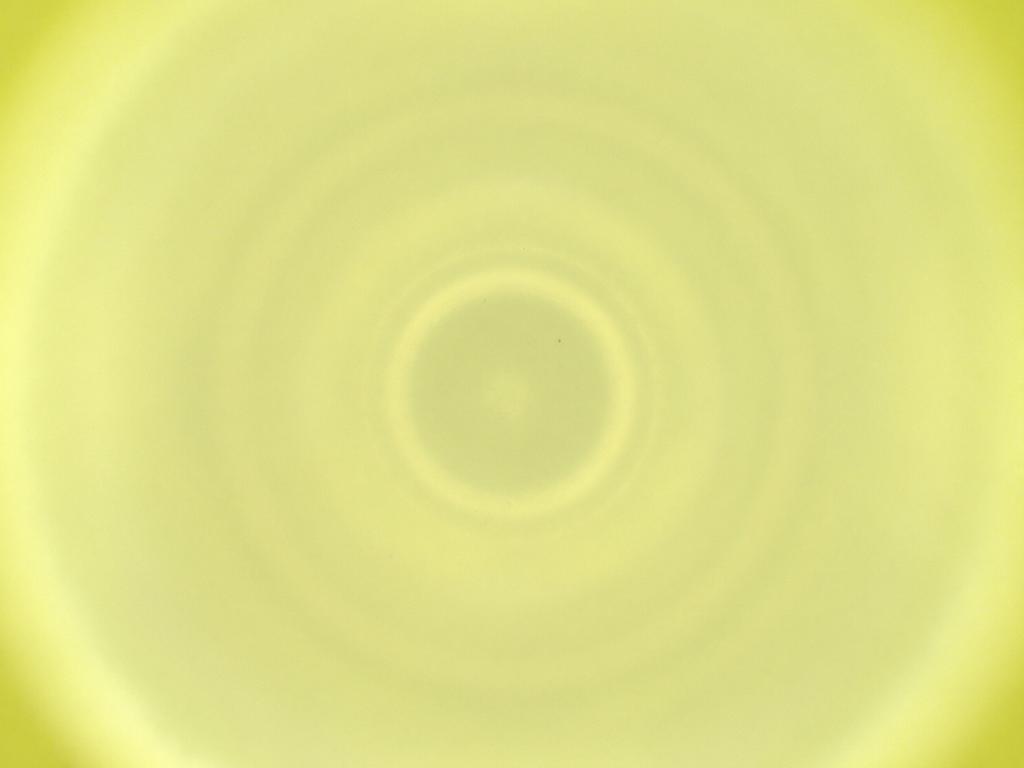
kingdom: Animalia
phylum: Arthropoda
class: Insecta
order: Diptera
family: Cecidomyiidae
